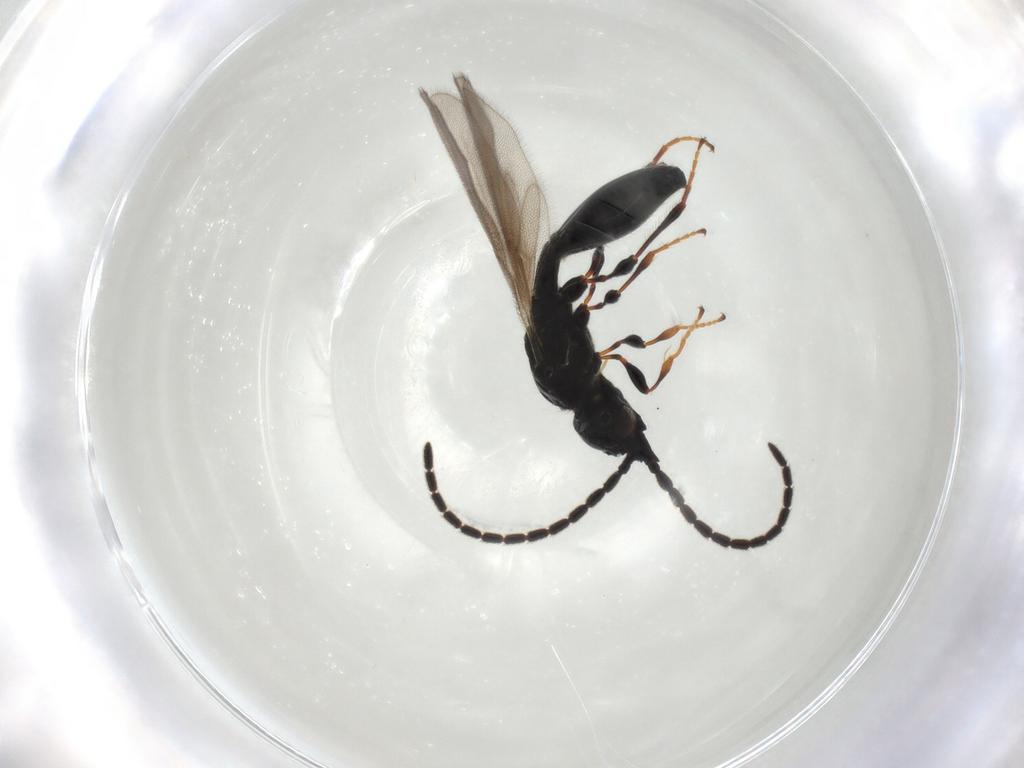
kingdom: Animalia
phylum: Arthropoda
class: Insecta
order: Hymenoptera
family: Diapriidae
